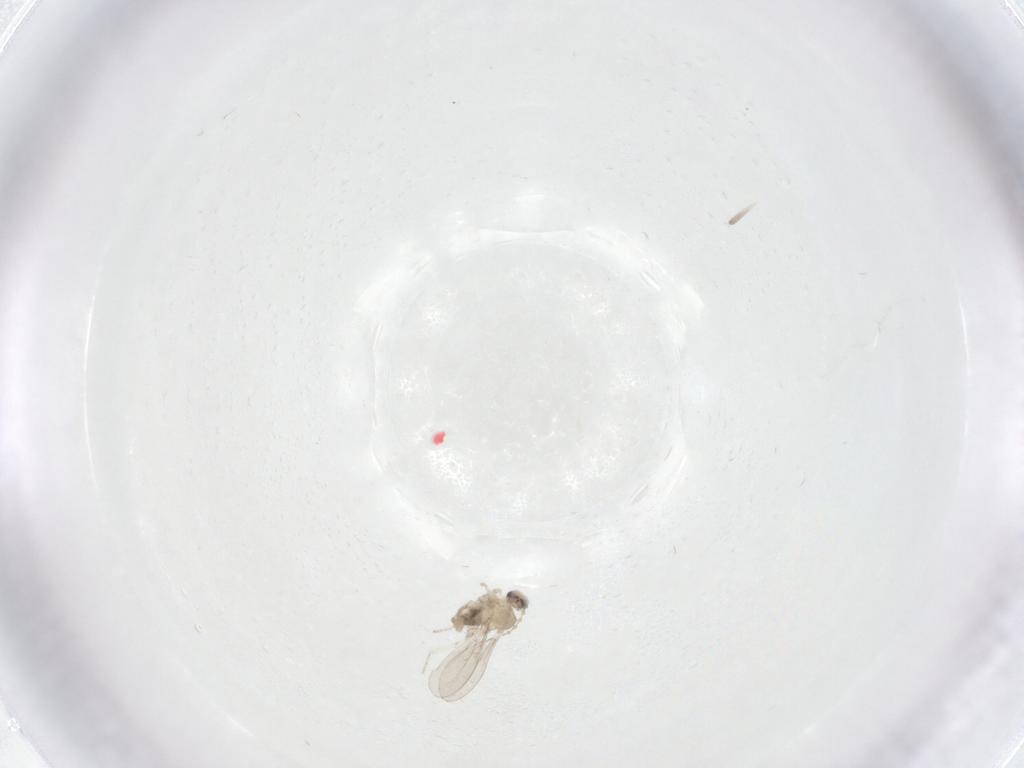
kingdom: Animalia
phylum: Arthropoda
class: Insecta
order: Diptera
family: Cecidomyiidae
